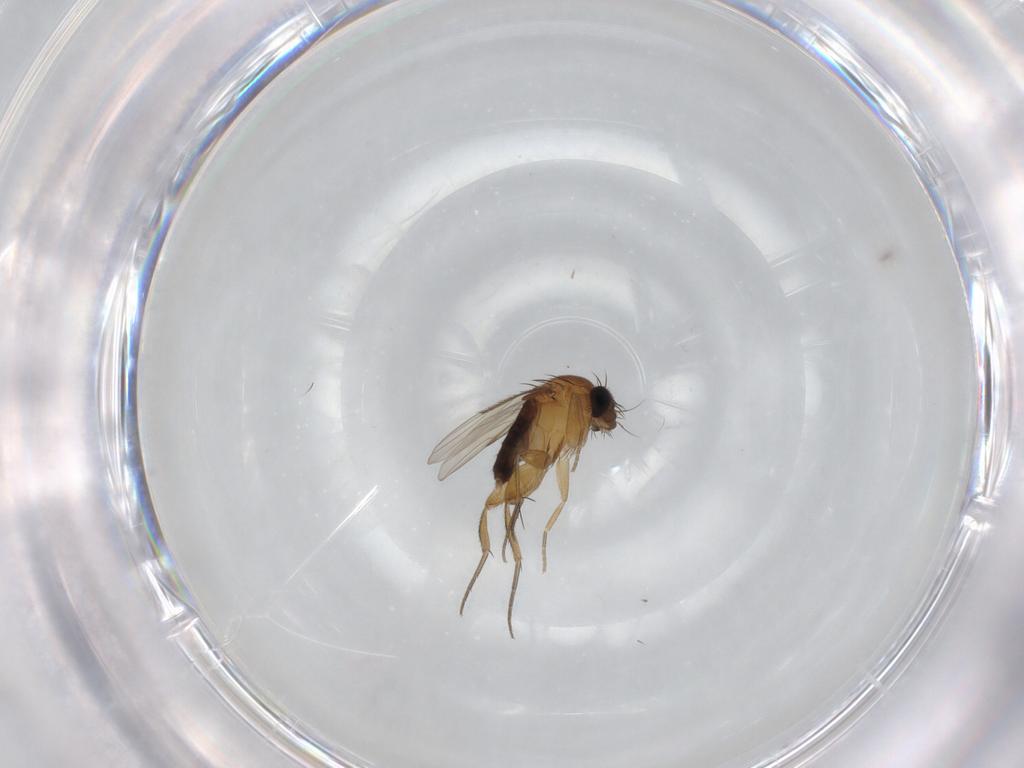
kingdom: Animalia
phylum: Arthropoda
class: Insecta
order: Diptera
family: Phoridae
